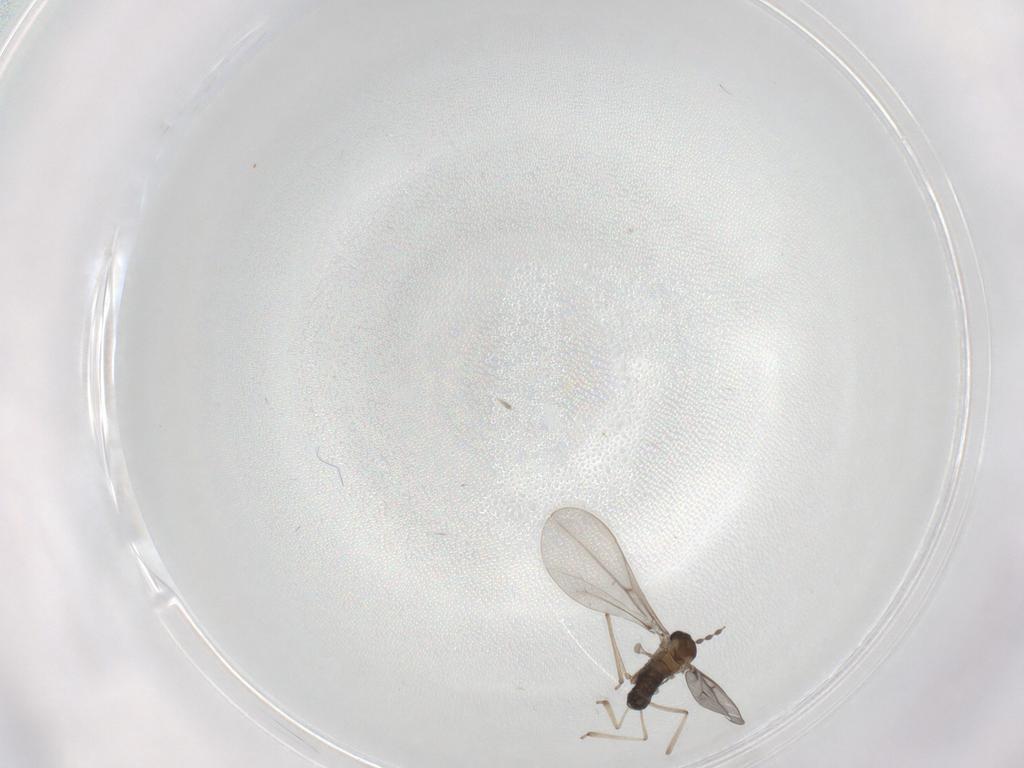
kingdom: Animalia
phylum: Arthropoda
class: Insecta
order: Diptera
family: Cecidomyiidae
